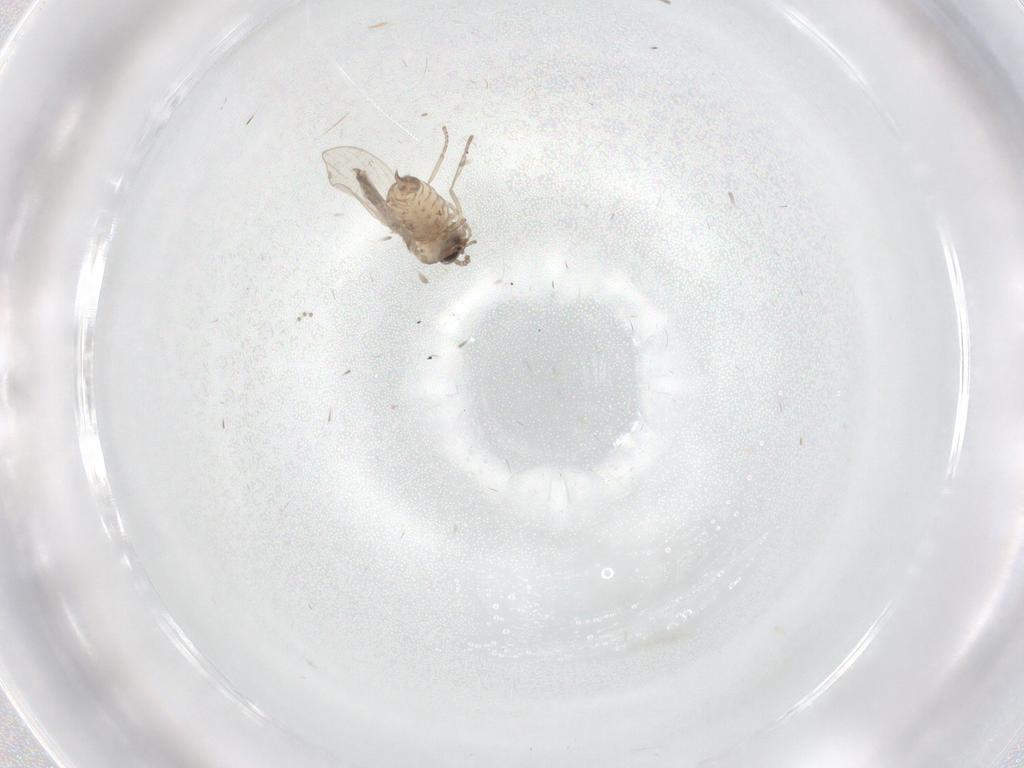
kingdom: Animalia
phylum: Arthropoda
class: Insecta
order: Diptera
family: Psychodidae
